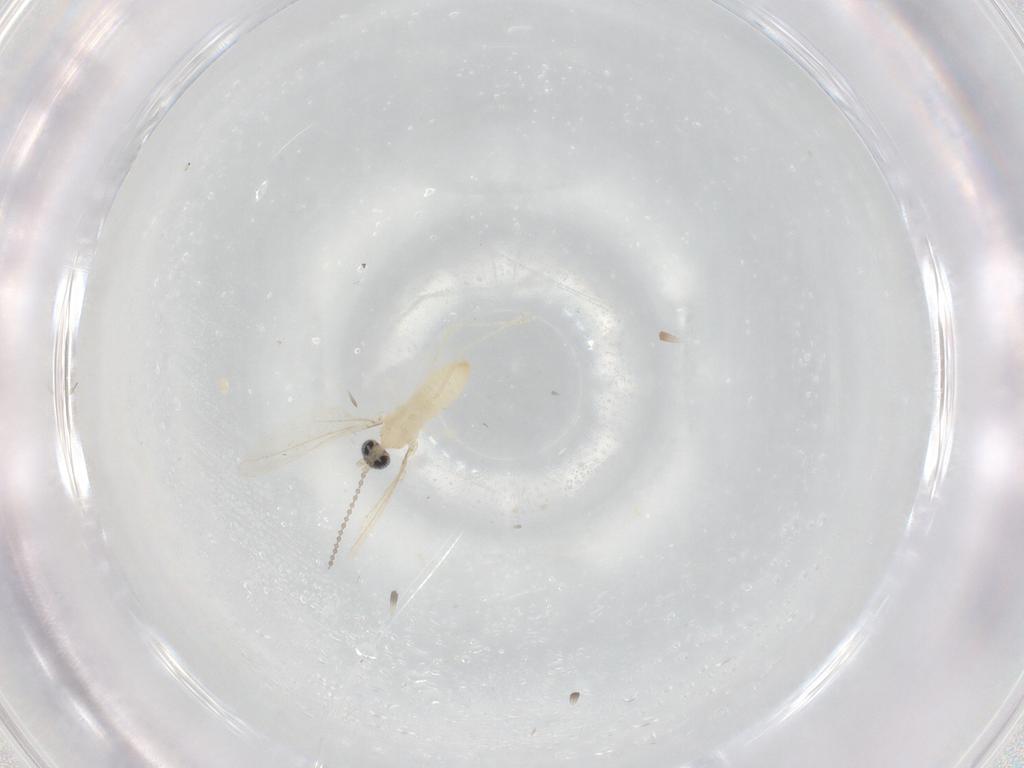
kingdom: Animalia
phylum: Arthropoda
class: Insecta
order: Diptera
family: Cecidomyiidae
